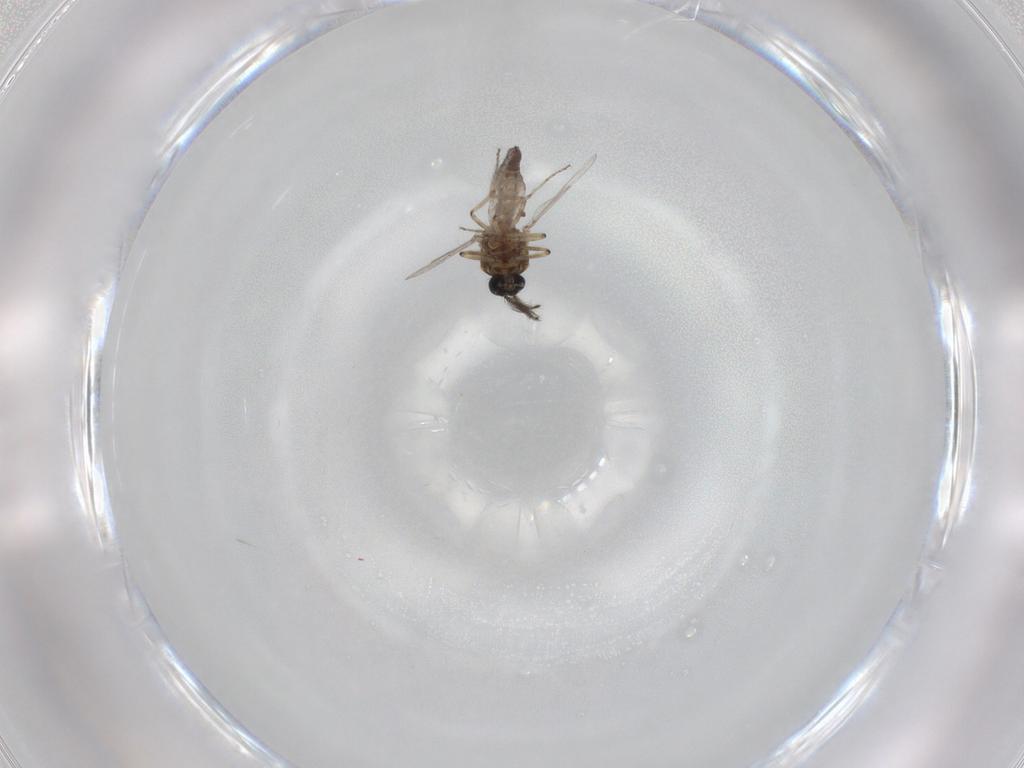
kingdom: Animalia
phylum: Arthropoda
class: Insecta
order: Diptera
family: Ceratopogonidae
